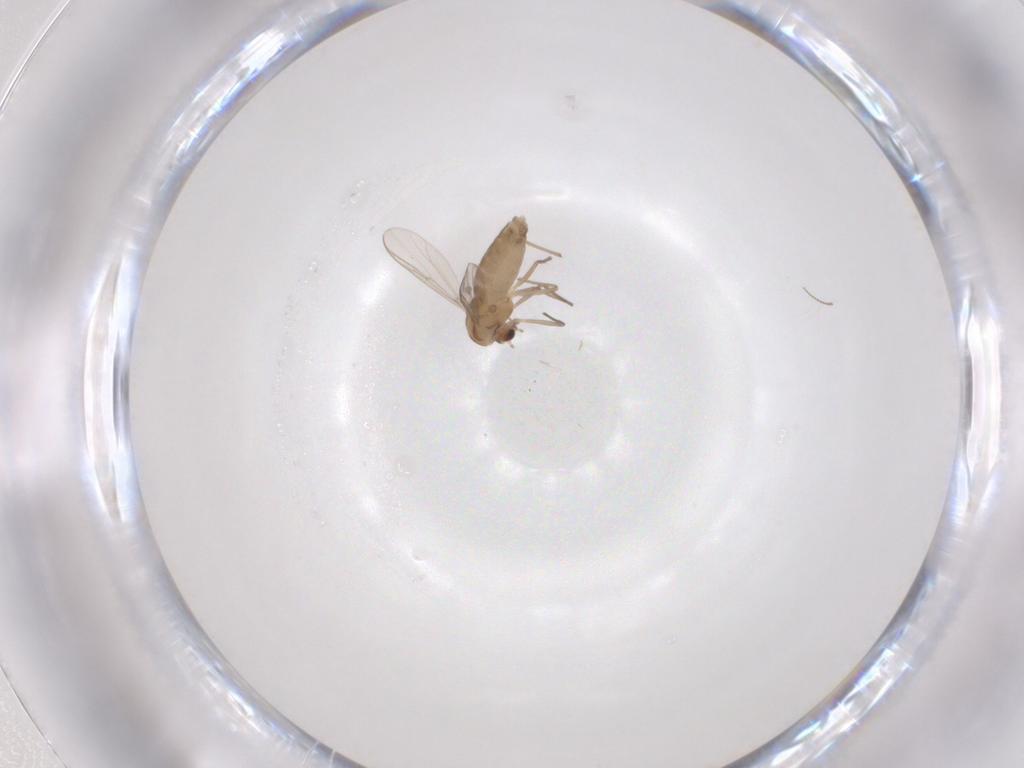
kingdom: Animalia
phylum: Arthropoda
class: Insecta
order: Diptera
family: Chironomidae
